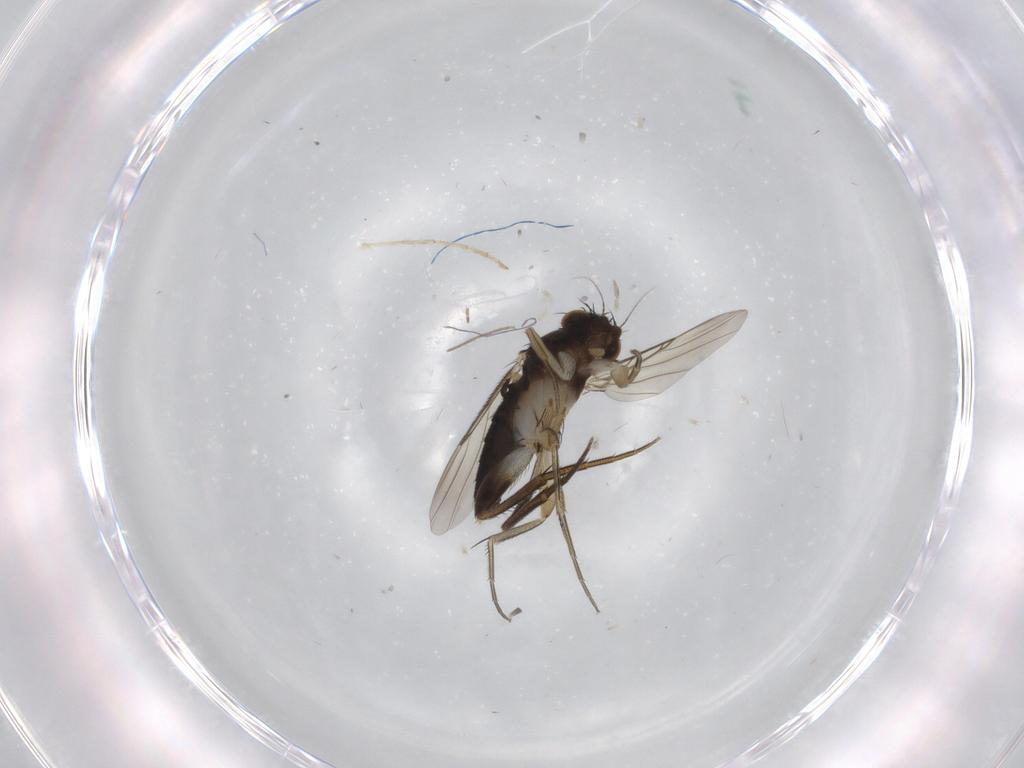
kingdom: Animalia
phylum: Arthropoda
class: Insecta
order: Diptera
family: Phoridae
